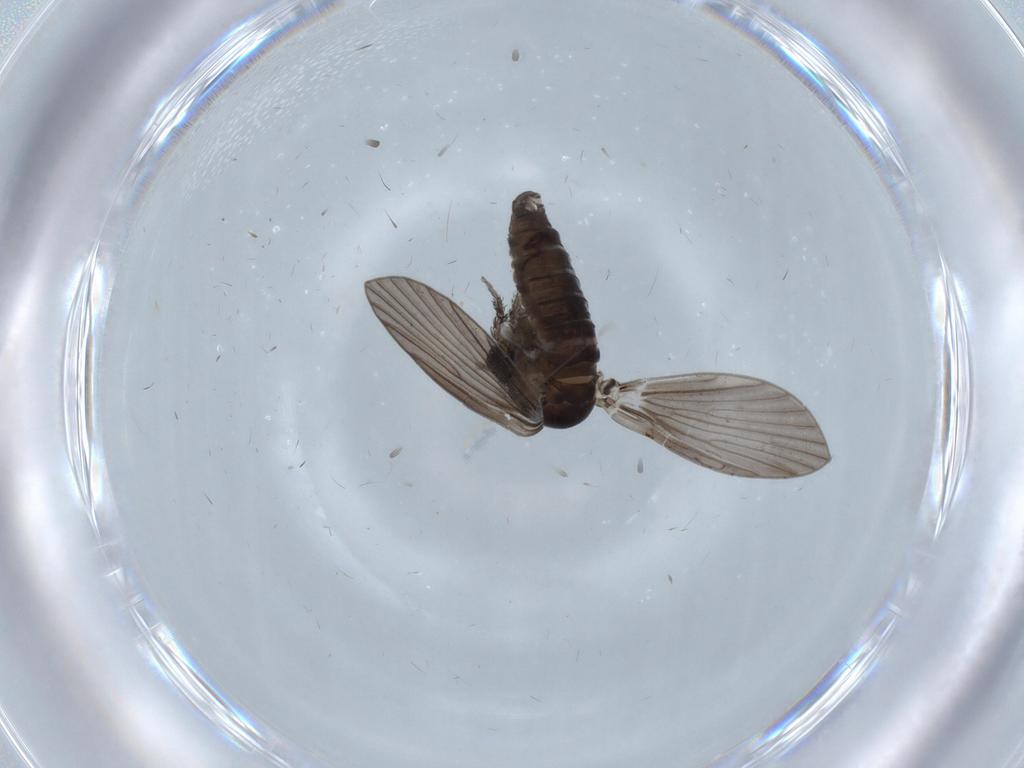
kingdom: Animalia
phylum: Arthropoda
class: Insecta
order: Diptera
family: Psychodidae
